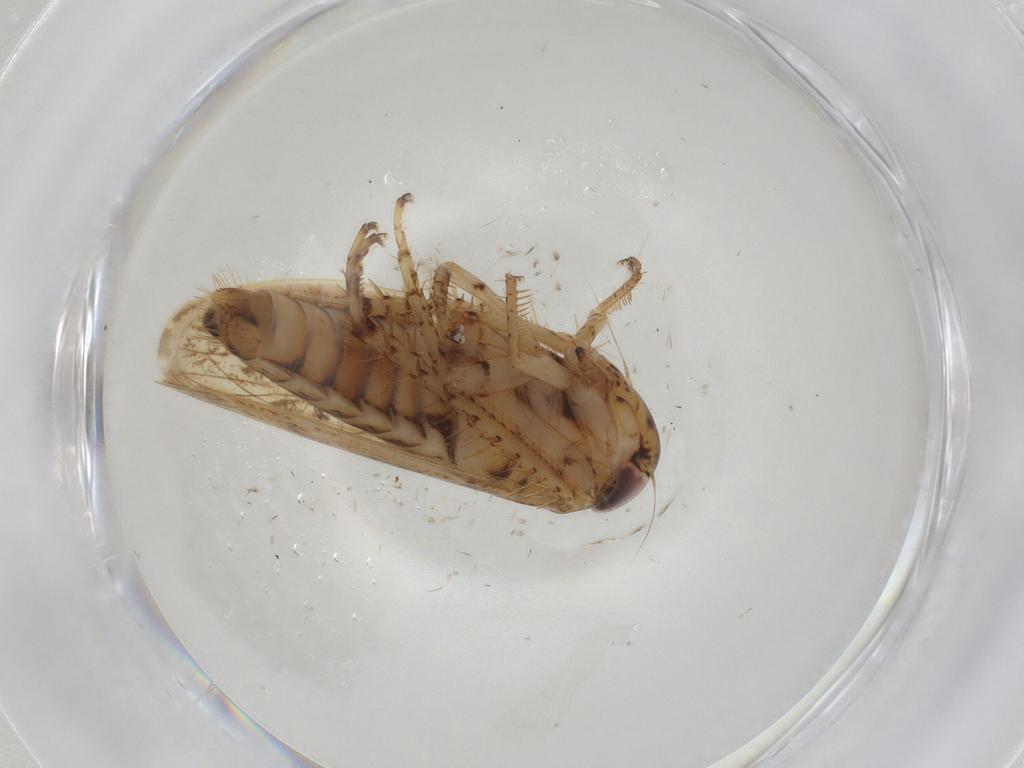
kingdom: Animalia
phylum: Arthropoda
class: Insecta
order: Hemiptera
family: Cicadellidae
